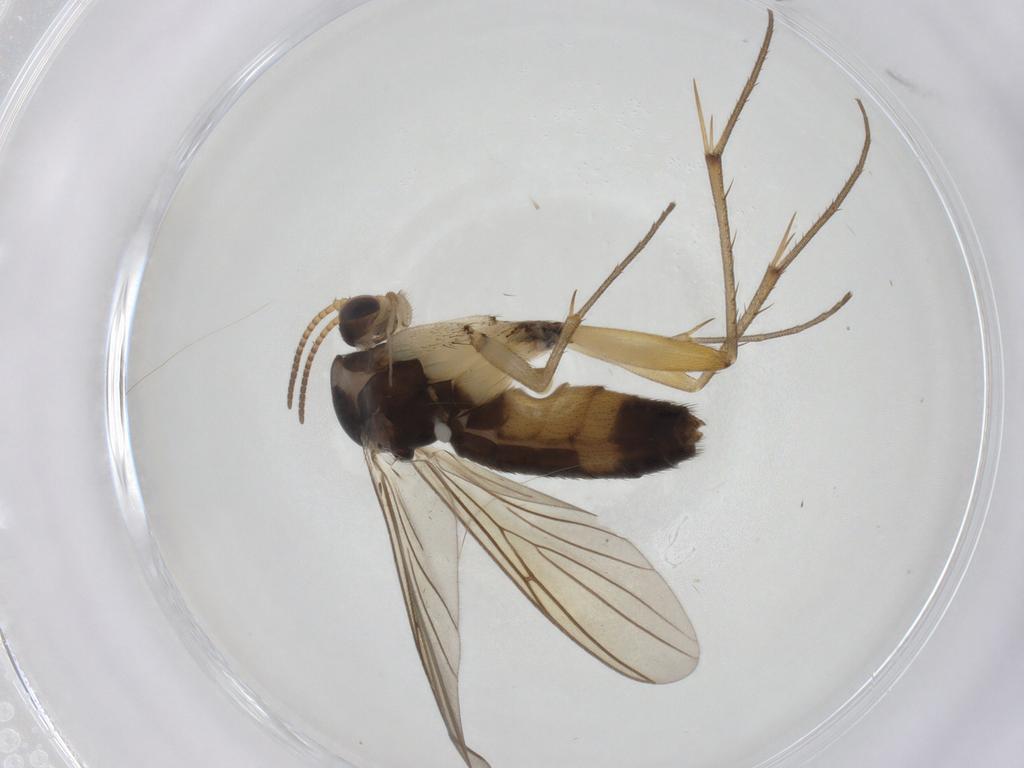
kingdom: Animalia
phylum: Arthropoda
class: Insecta
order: Diptera
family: Mycetophilidae
